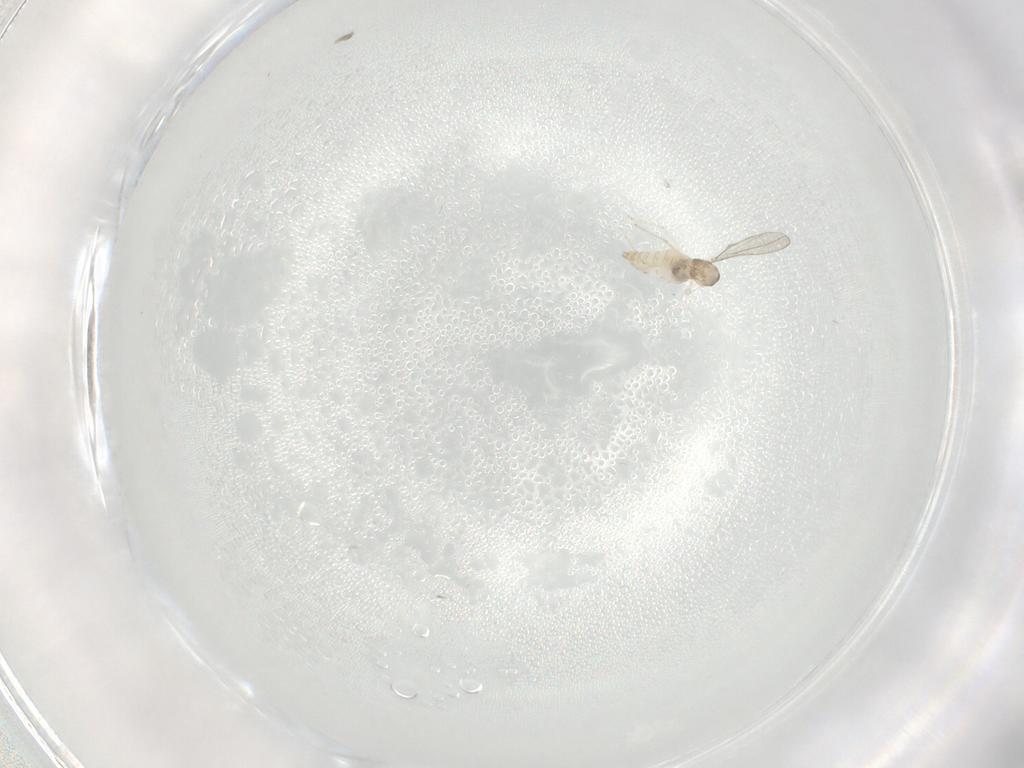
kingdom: Animalia
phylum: Arthropoda
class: Insecta
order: Diptera
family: Cecidomyiidae
